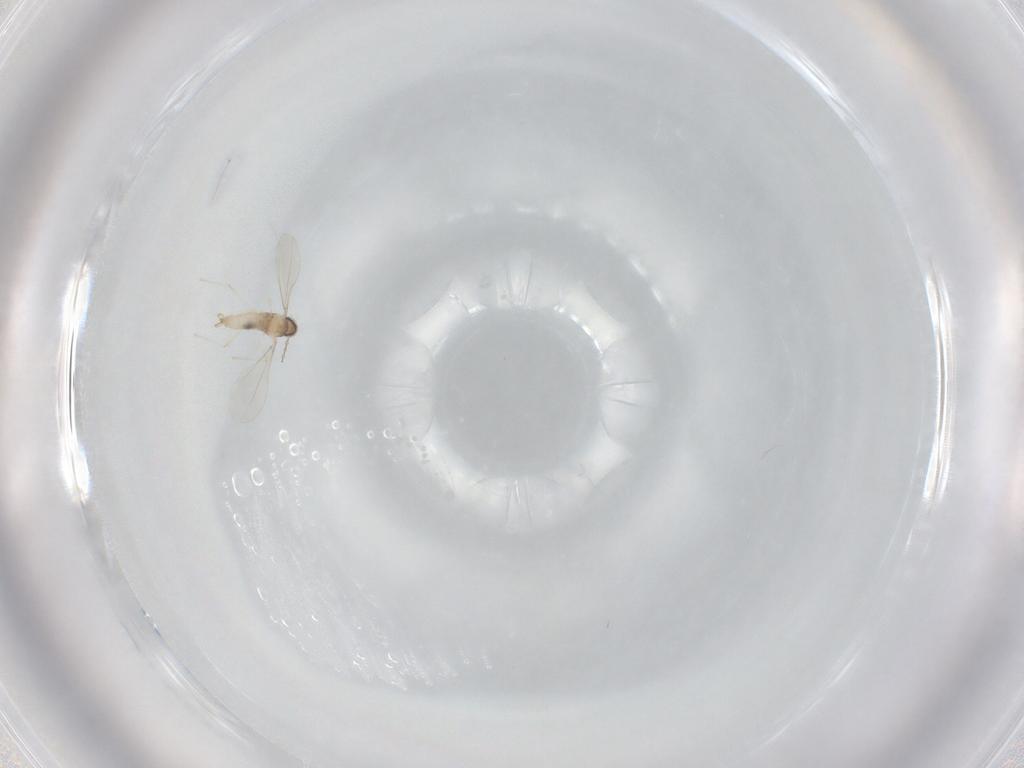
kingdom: Animalia
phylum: Arthropoda
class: Insecta
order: Diptera
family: Cecidomyiidae
